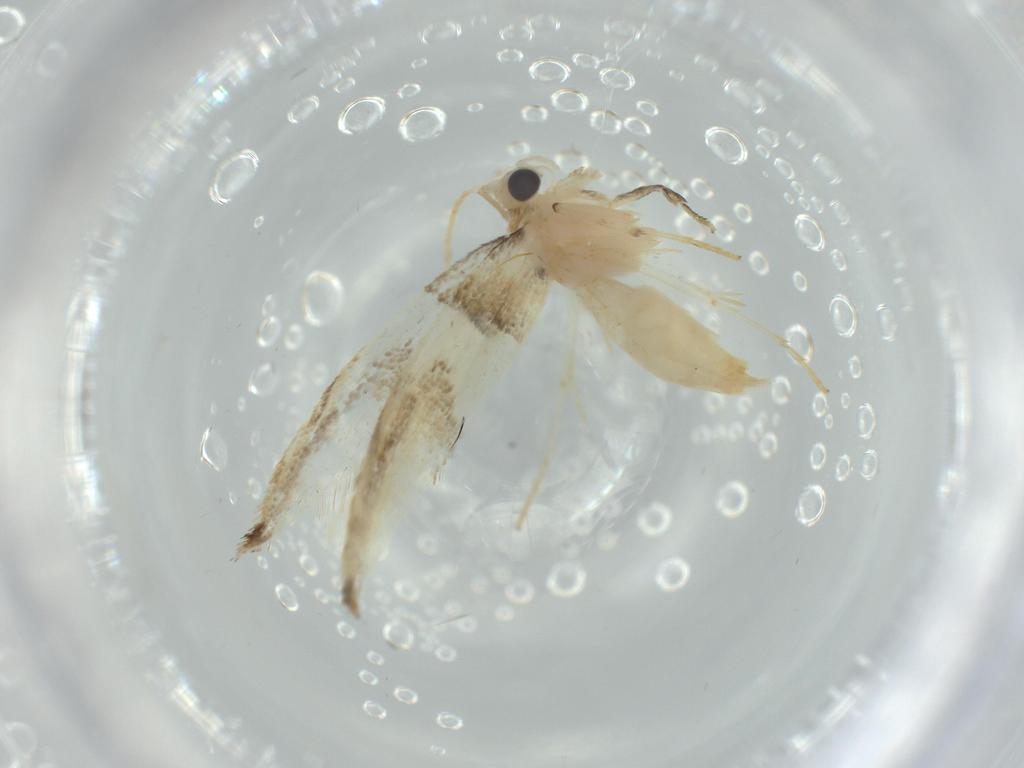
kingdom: Animalia
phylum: Arthropoda
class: Insecta
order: Lepidoptera
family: Tineidae
